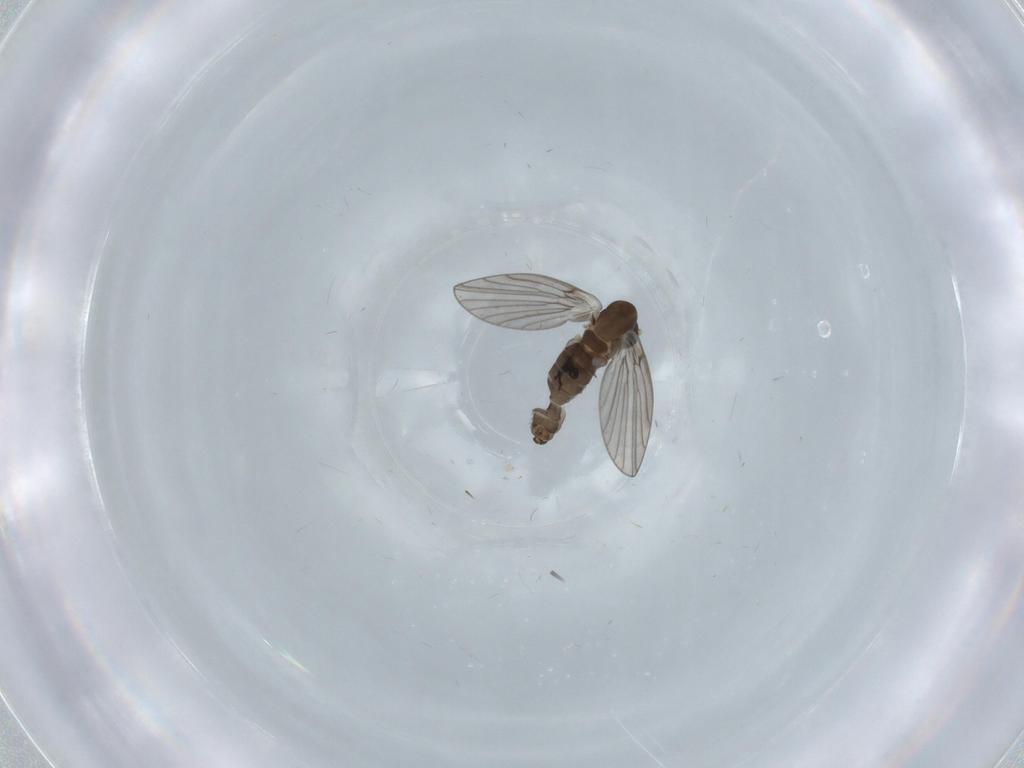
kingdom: Animalia
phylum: Arthropoda
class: Insecta
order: Diptera
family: Psychodidae
